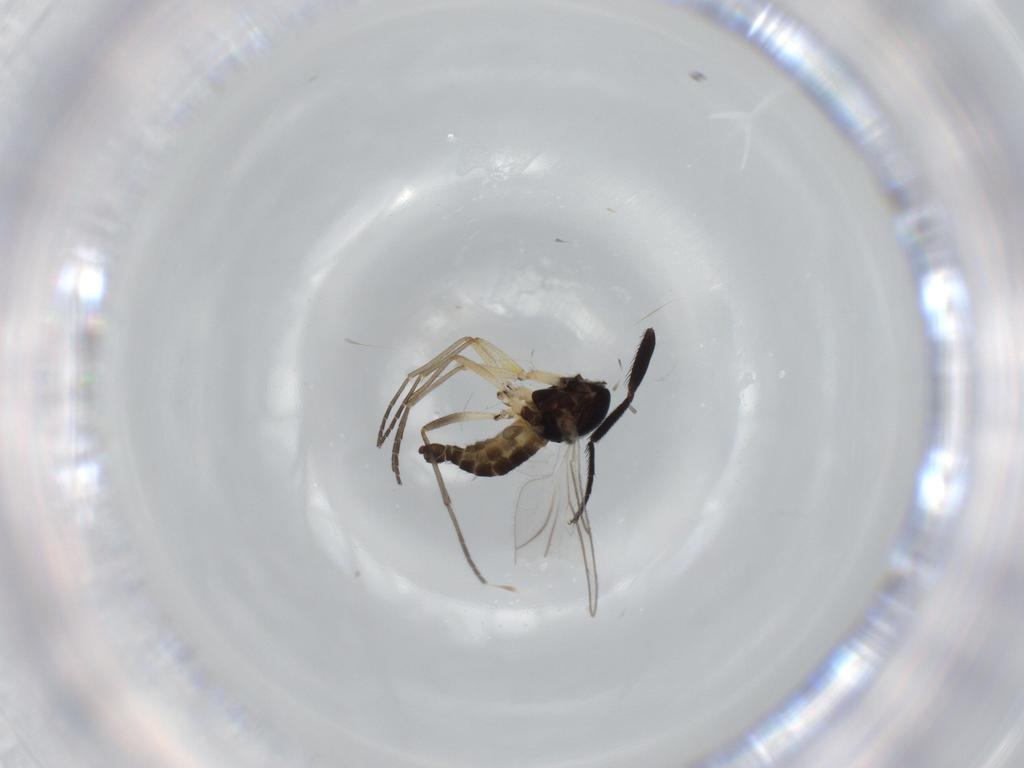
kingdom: Animalia
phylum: Arthropoda
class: Insecta
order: Diptera
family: Sciaridae
